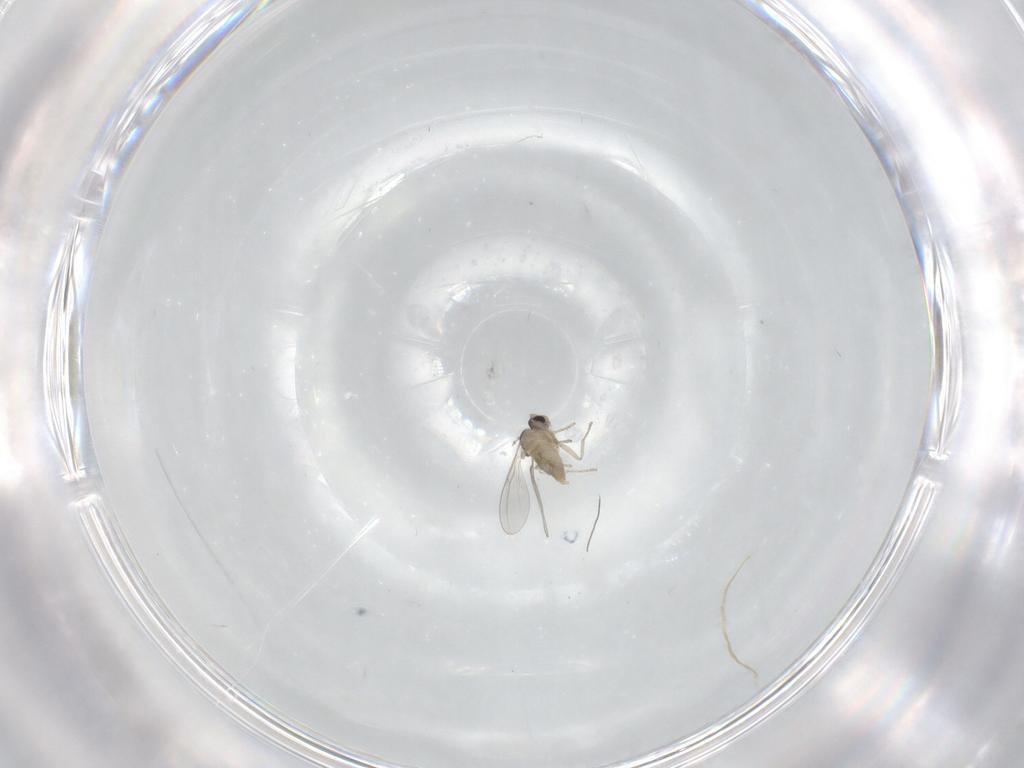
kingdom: Animalia
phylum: Arthropoda
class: Insecta
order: Diptera
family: Cecidomyiidae
